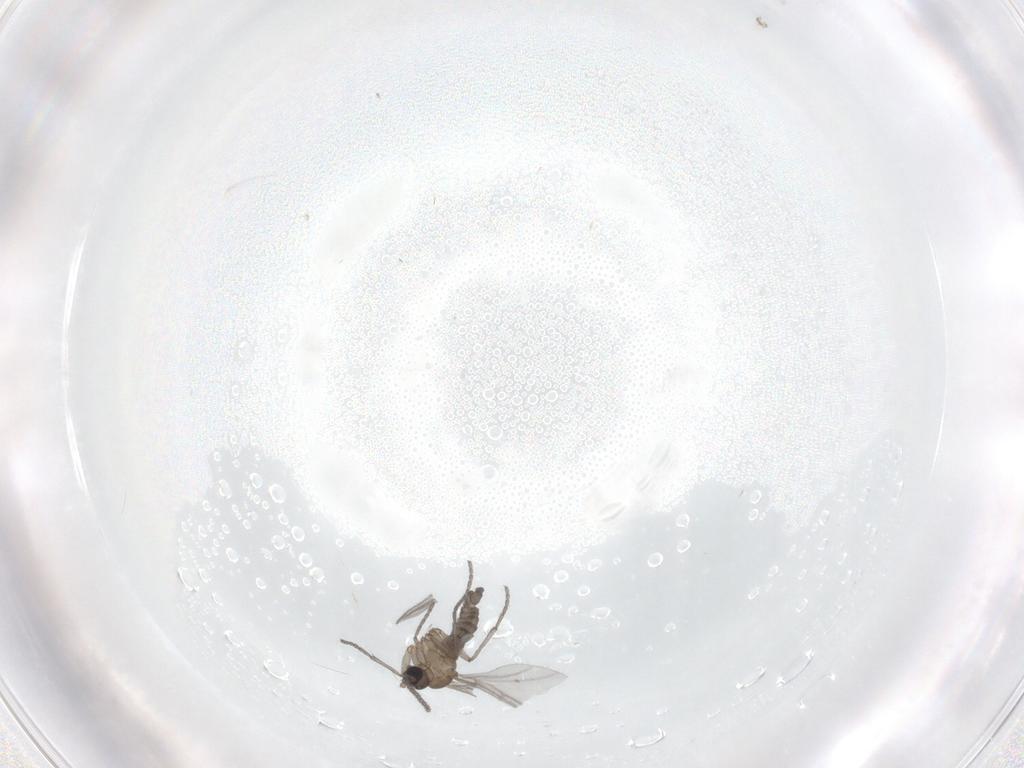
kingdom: Animalia
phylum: Arthropoda
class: Insecta
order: Diptera
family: Sciaridae
